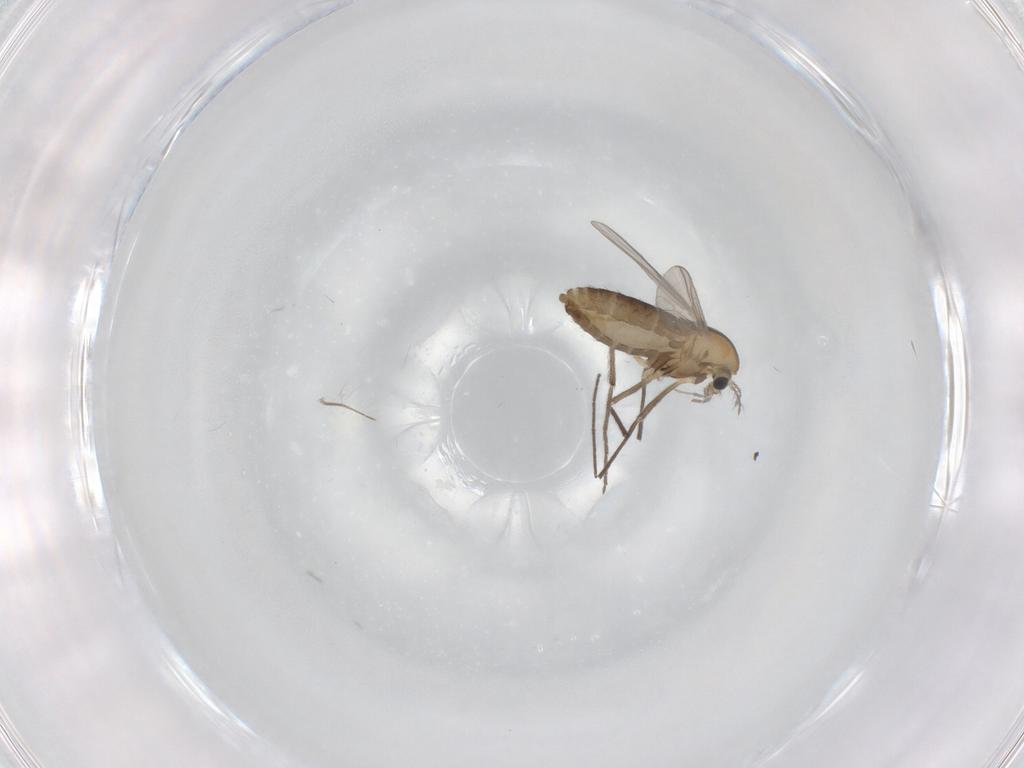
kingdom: Animalia
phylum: Arthropoda
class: Insecta
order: Diptera
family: Chironomidae
